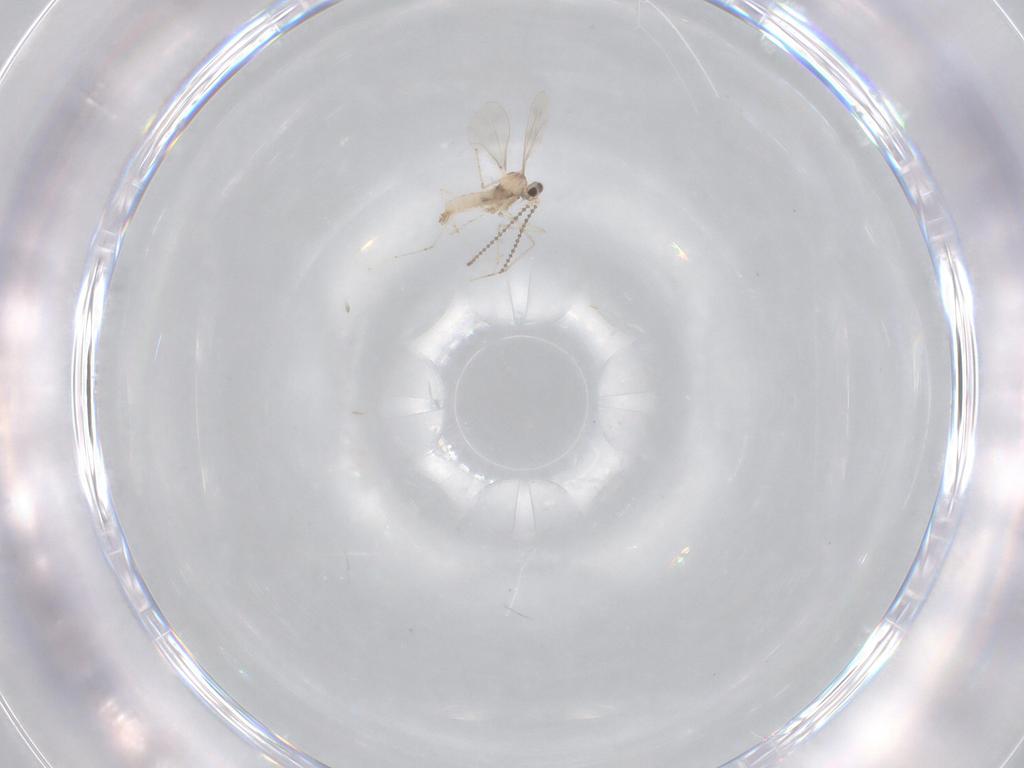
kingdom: Animalia
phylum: Arthropoda
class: Insecta
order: Diptera
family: Cecidomyiidae
